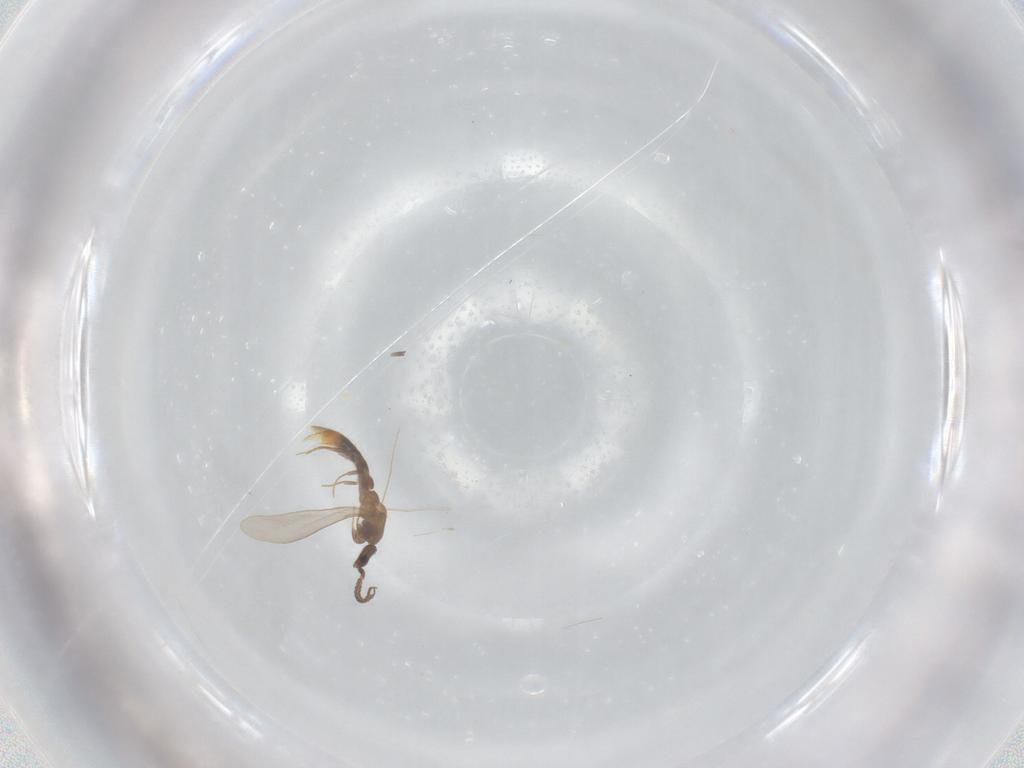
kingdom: Animalia
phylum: Arthropoda
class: Insecta
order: Hymenoptera
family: Formicidae
